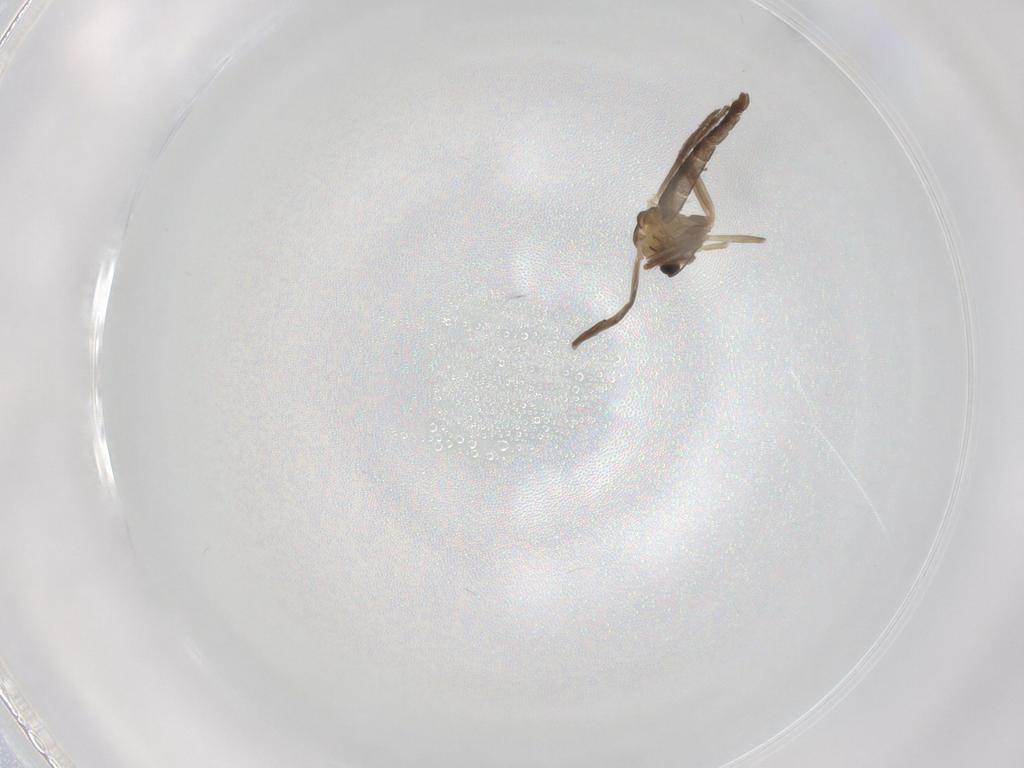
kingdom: Animalia
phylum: Arthropoda
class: Insecta
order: Diptera
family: Chironomidae
